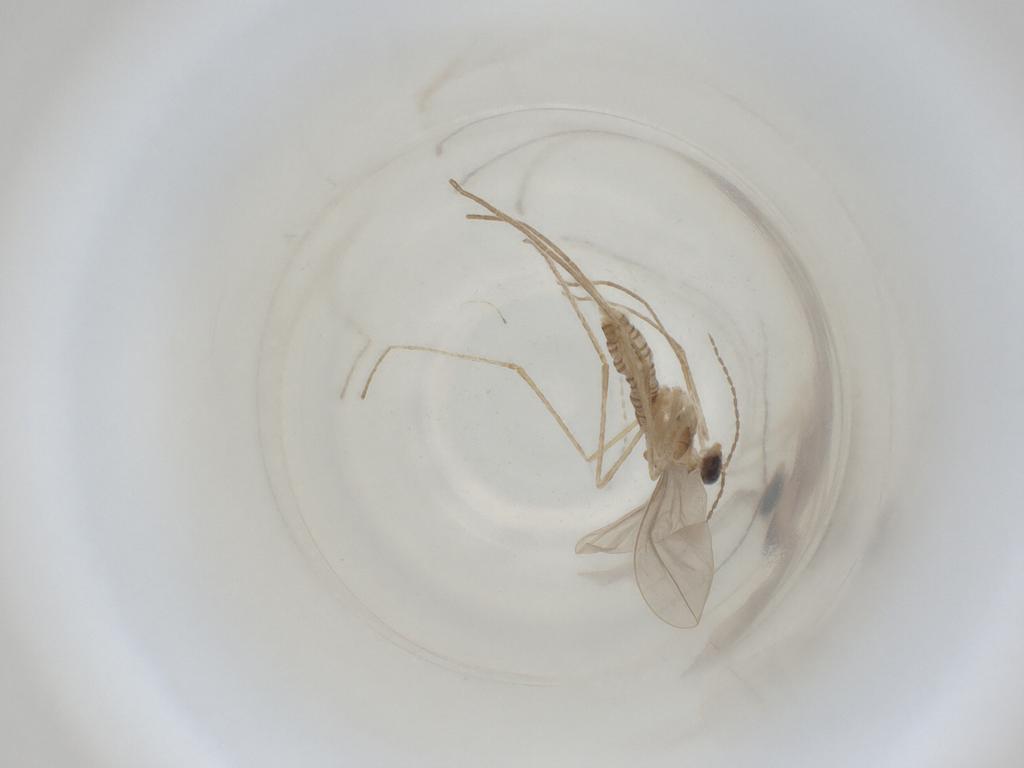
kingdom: Animalia
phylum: Arthropoda
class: Insecta
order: Diptera
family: Cecidomyiidae
